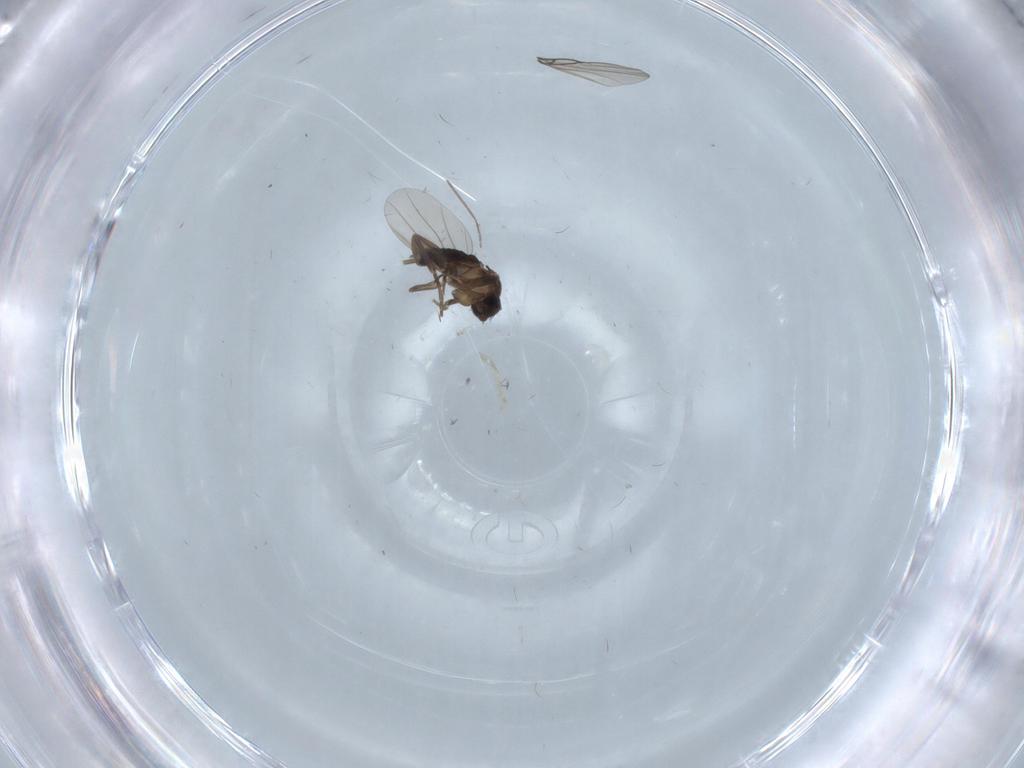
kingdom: Animalia
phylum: Arthropoda
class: Insecta
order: Diptera
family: Phoridae
